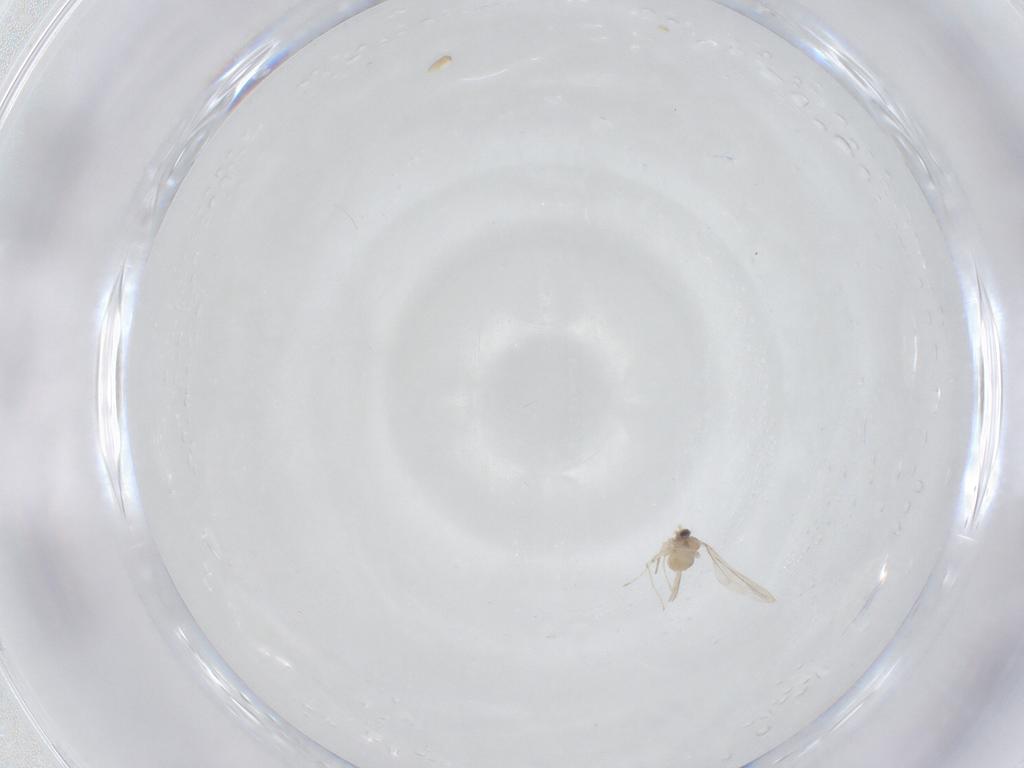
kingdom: Animalia
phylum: Arthropoda
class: Insecta
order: Diptera
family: Cecidomyiidae
